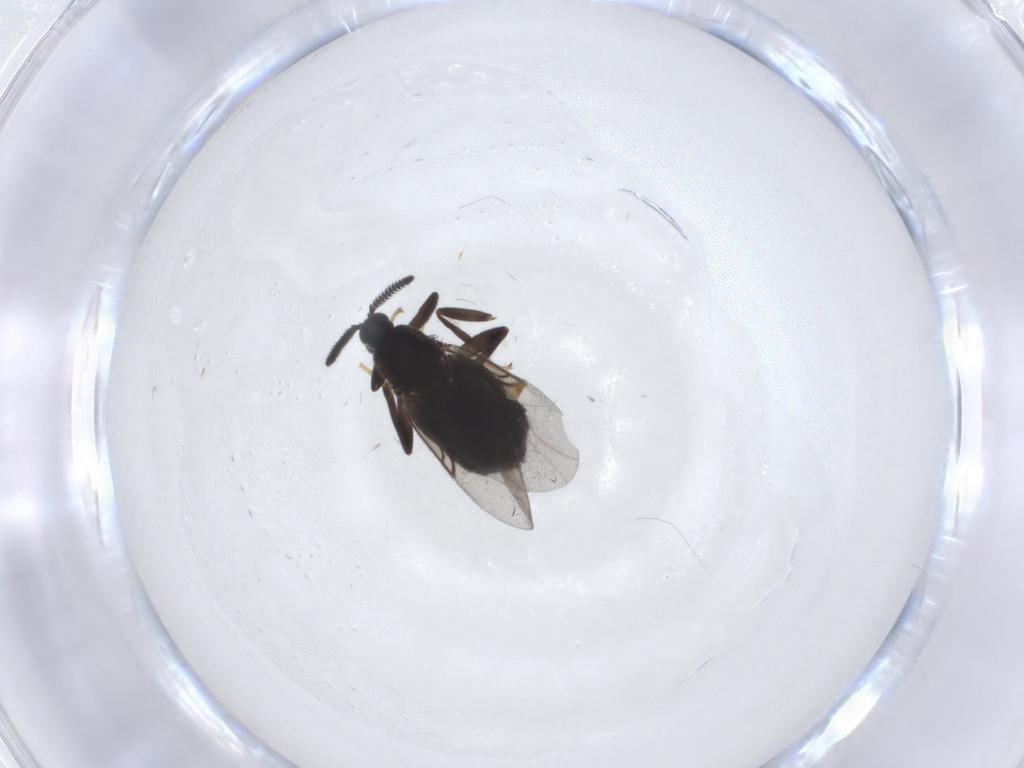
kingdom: Animalia
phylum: Arthropoda
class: Insecta
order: Diptera
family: Scatopsidae
